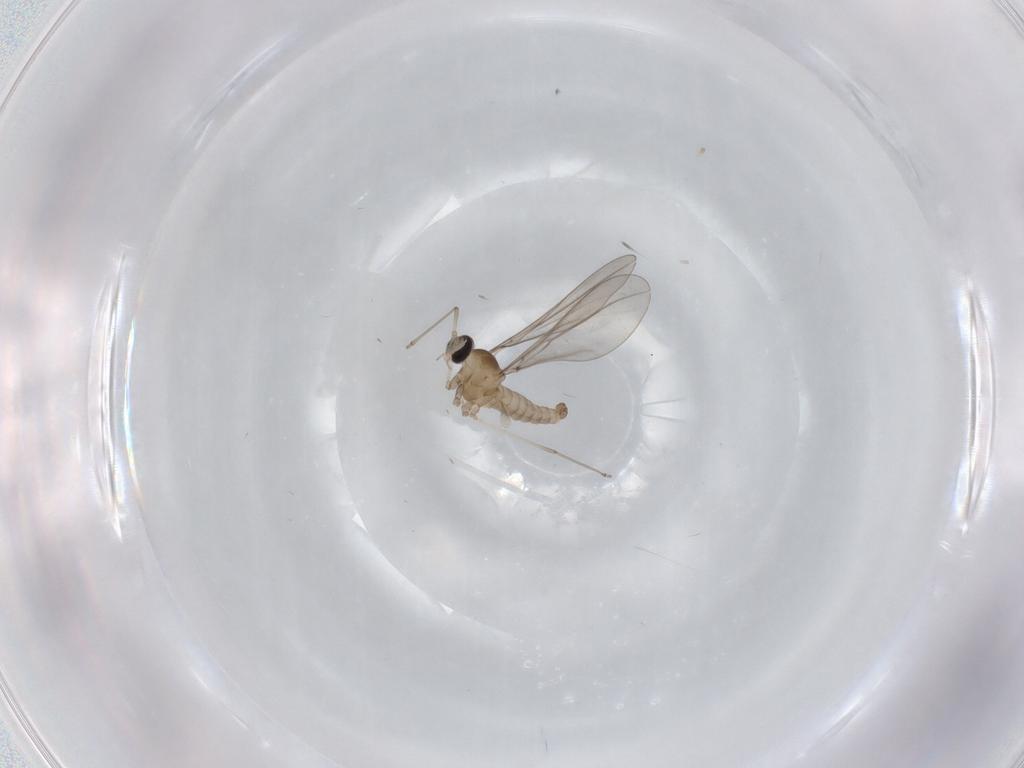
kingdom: Animalia
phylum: Arthropoda
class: Insecta
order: Diptera
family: Cecidomyiidae
